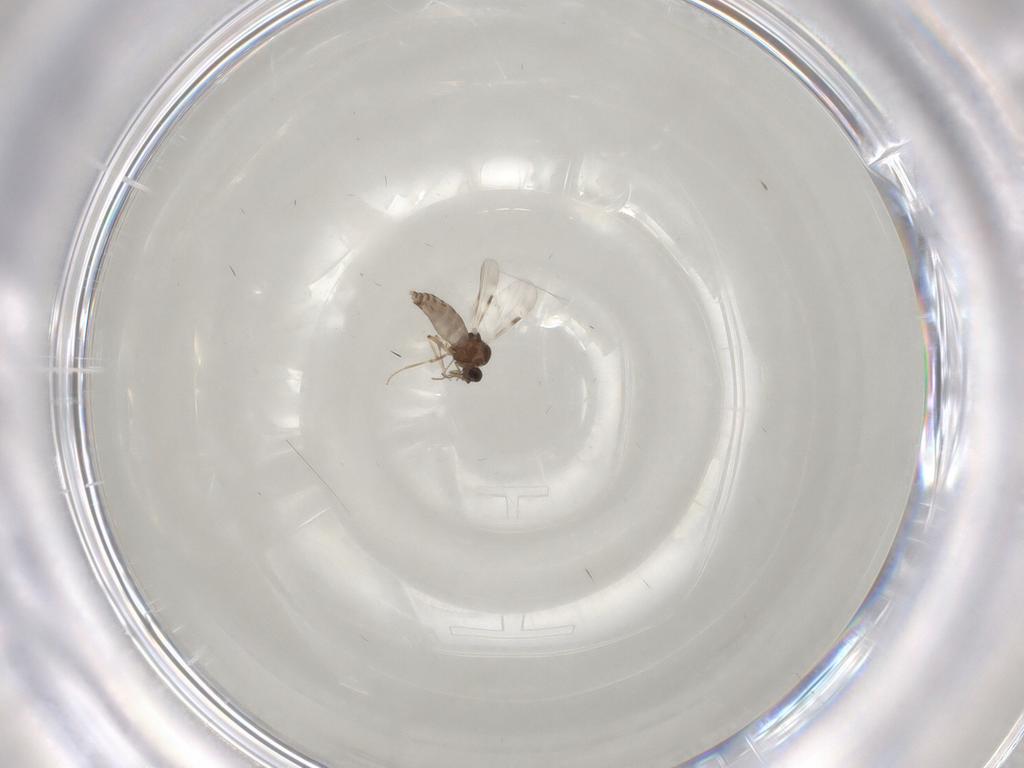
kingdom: Animalia
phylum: Arthropoda
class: Insecta
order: Diptera
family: Ceratopogonidae
